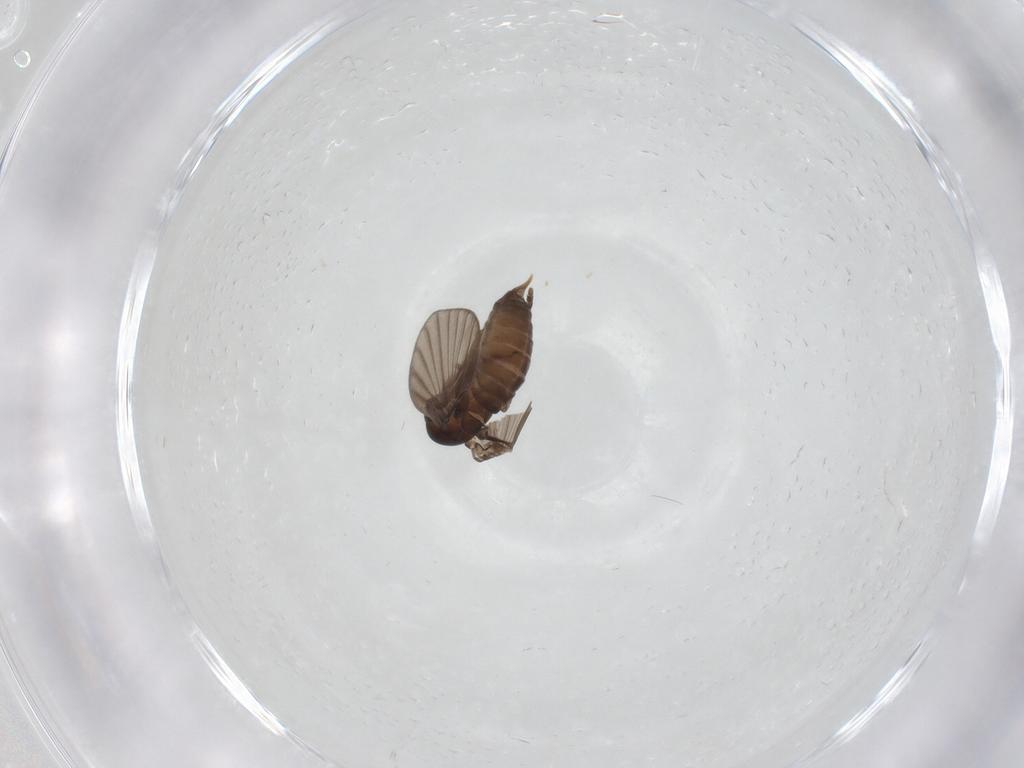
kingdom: Animalia
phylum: Arthropoda
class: Insecta
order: Diptera
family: Psychodidae
